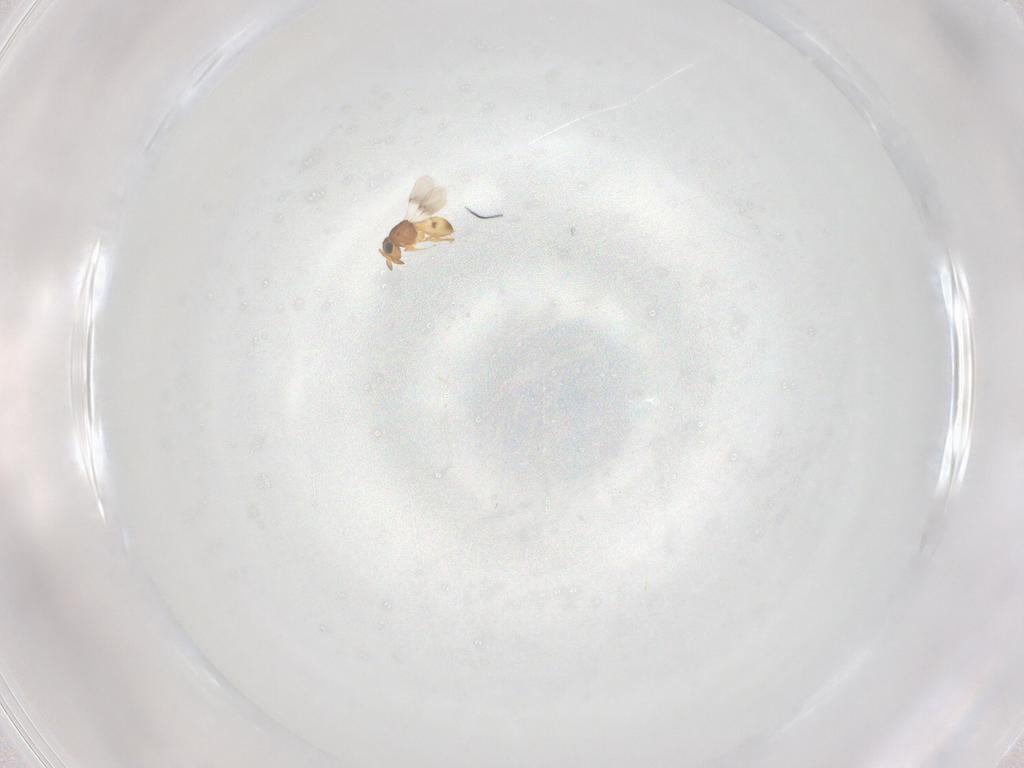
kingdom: Animalia
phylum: Arthropoda
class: Insecta
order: Hymenoptera
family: Scelionidae
